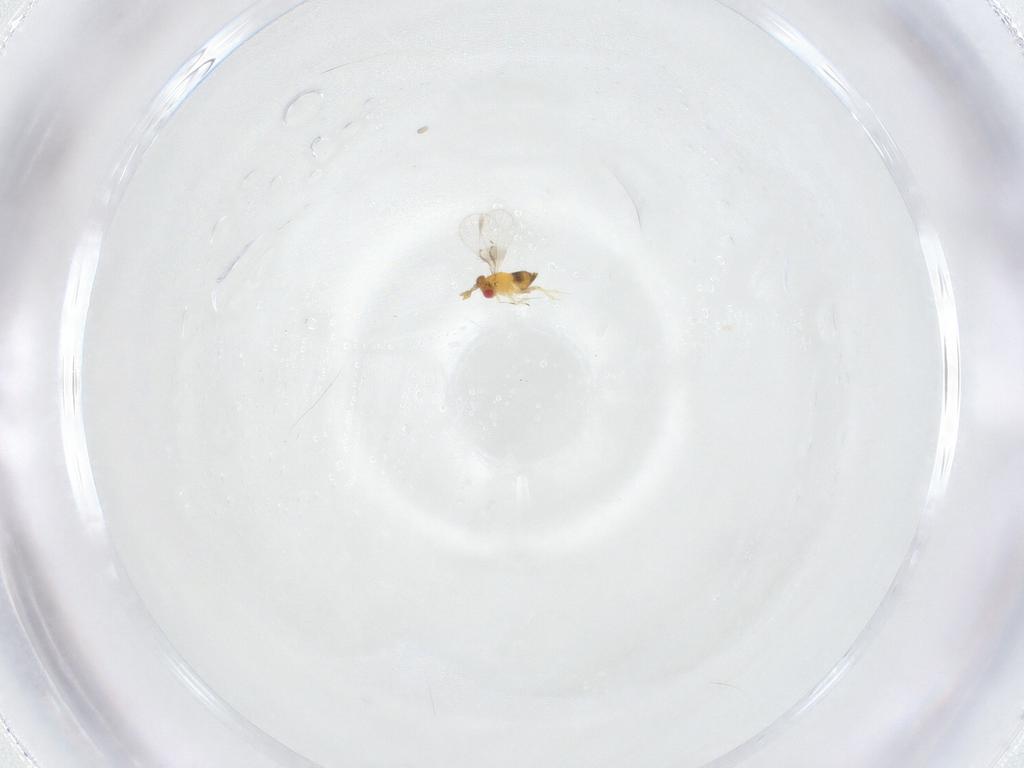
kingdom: Animalia
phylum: Arthropoda
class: Insecta
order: Hymenoptera
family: Trichogrammatidae
